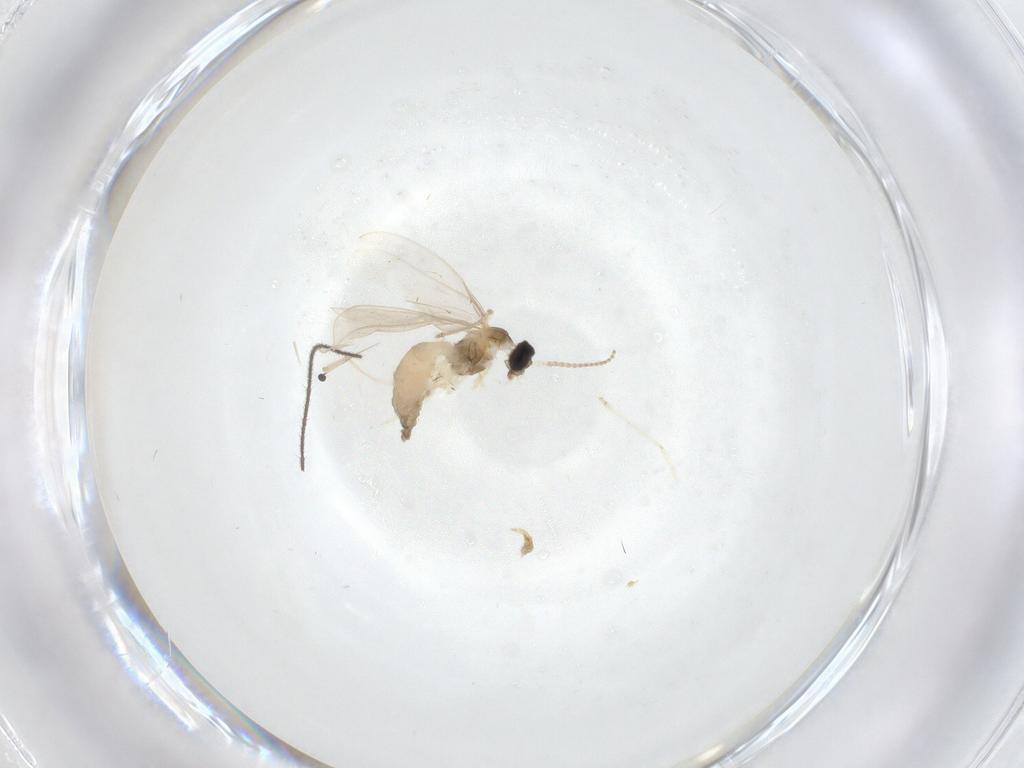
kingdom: Animalia
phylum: Arthropoda
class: Insecta
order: Diptera
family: Cecidomyiidae
